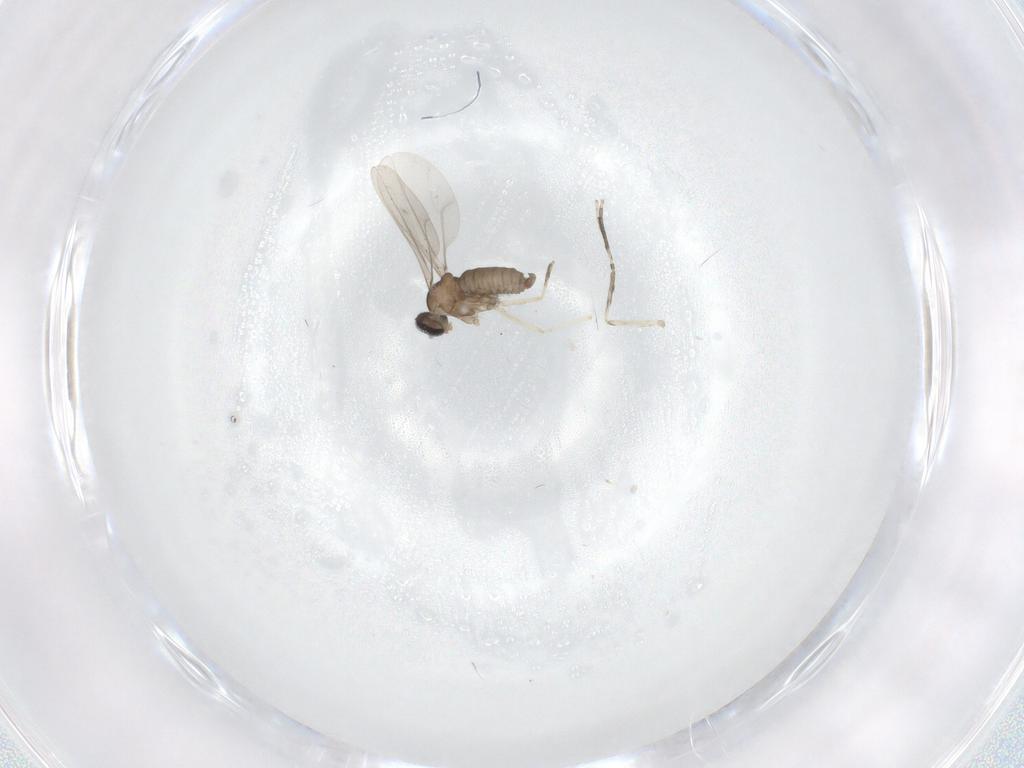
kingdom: Animalia
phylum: Arthropoda
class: Insecta
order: Diptera
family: Cecidomyiidae
